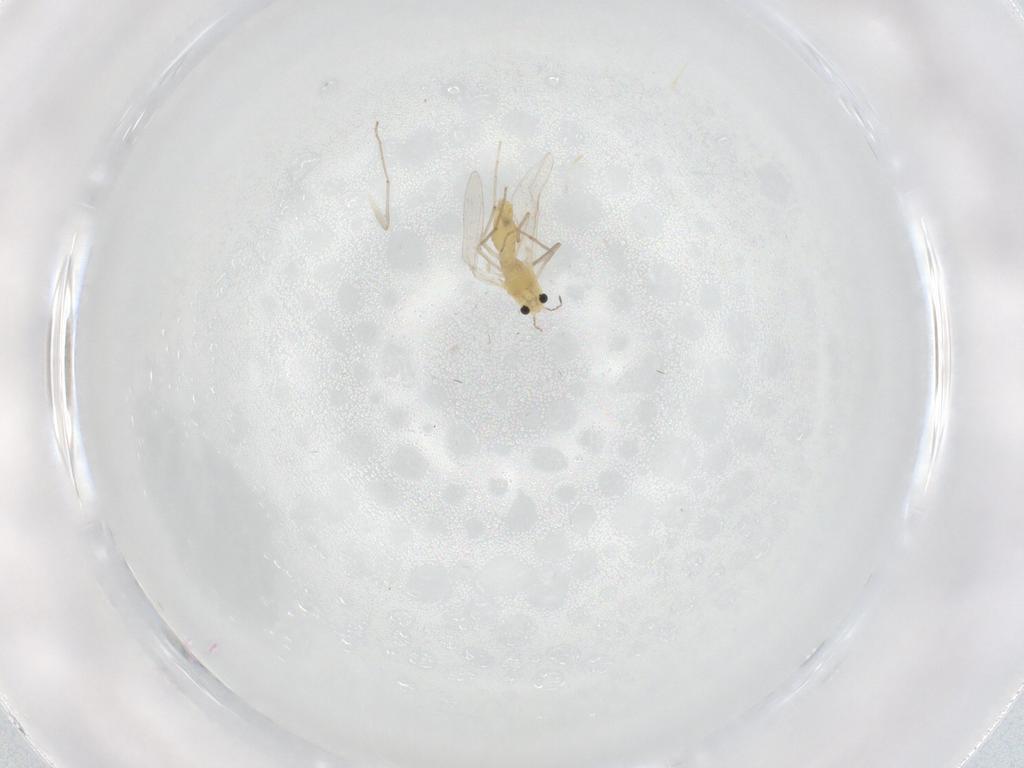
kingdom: Animalia
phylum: Arthropoda
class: Insecta
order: Diptera
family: Chironomidae
